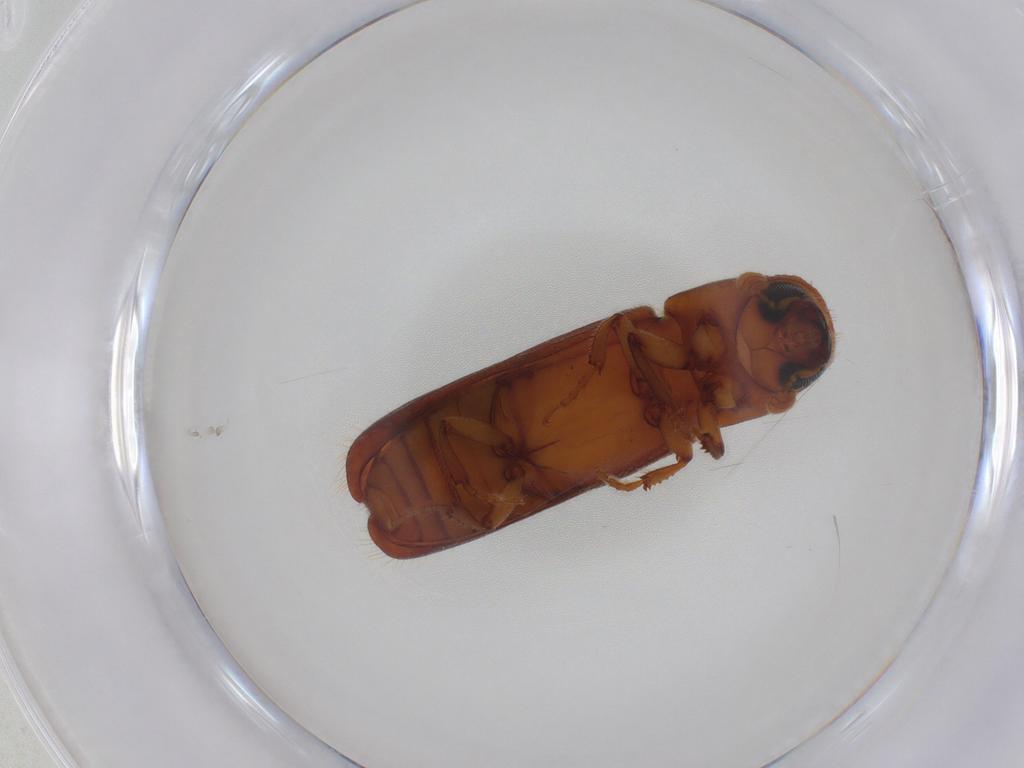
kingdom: Animalia
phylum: Arthropoda
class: Insecta
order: Coleoptera
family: Curculionidae
